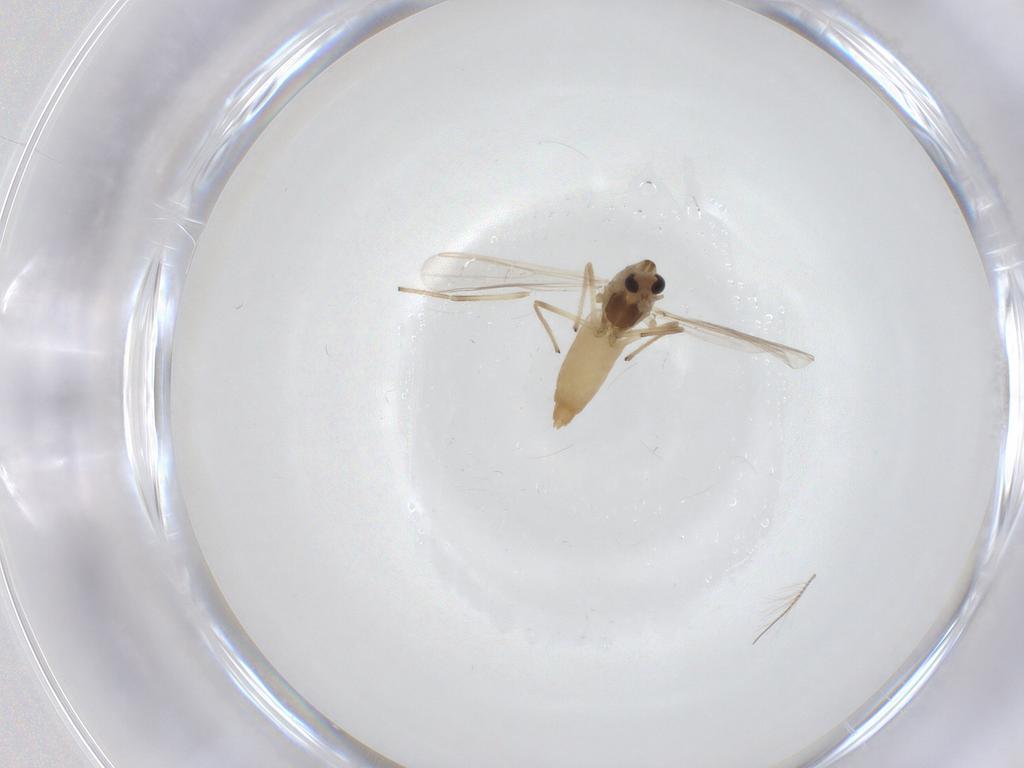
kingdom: Animalia
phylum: Arthropoda
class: Insecta
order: Diptera
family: Chironomidae
